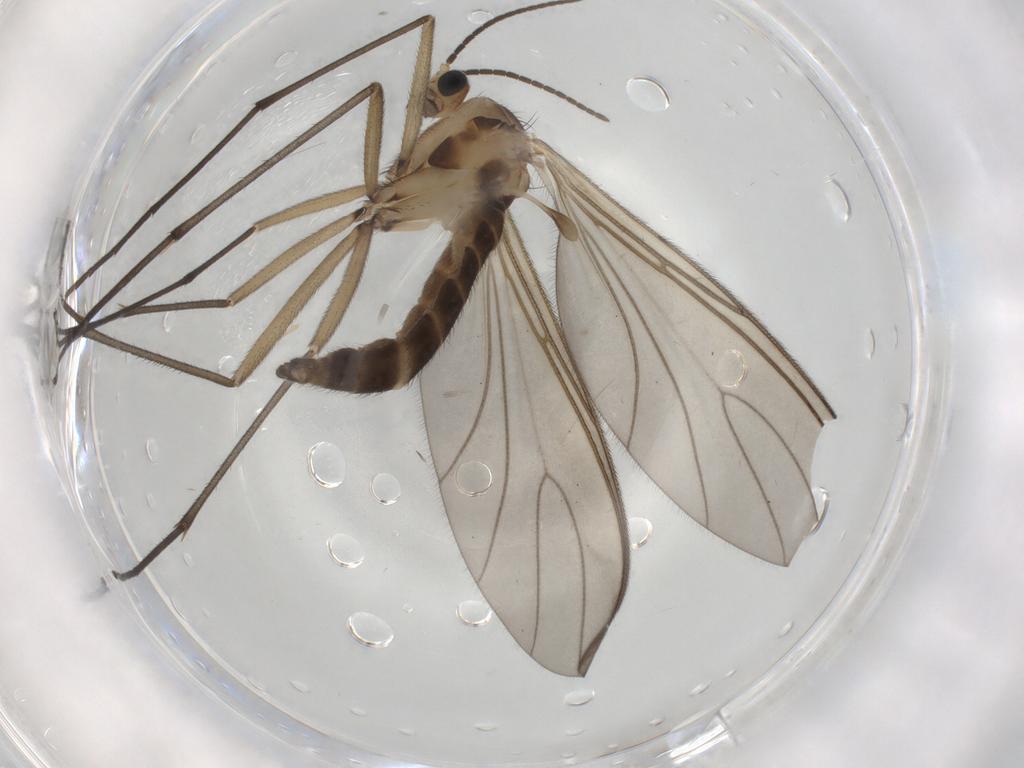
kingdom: Animalia
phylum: Arthropoda
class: Insecta
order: Diptera
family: Sciaridae
